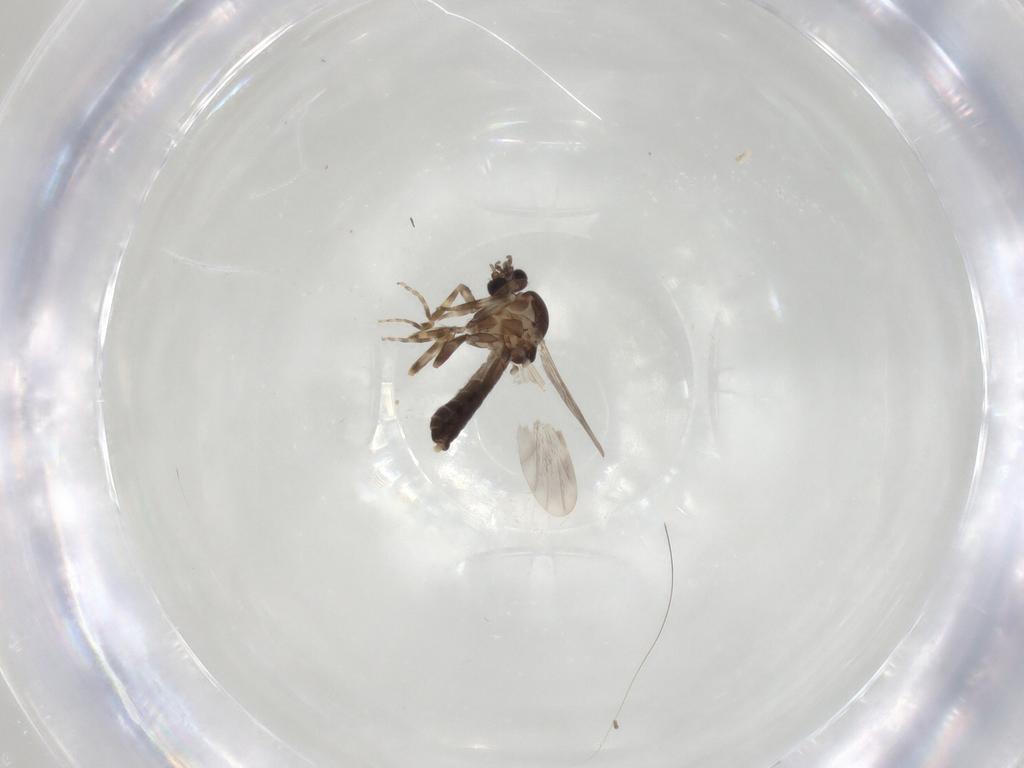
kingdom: Animalia
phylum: Arthropoda
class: Insecta
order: Diptera
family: Ceratopogonidae
